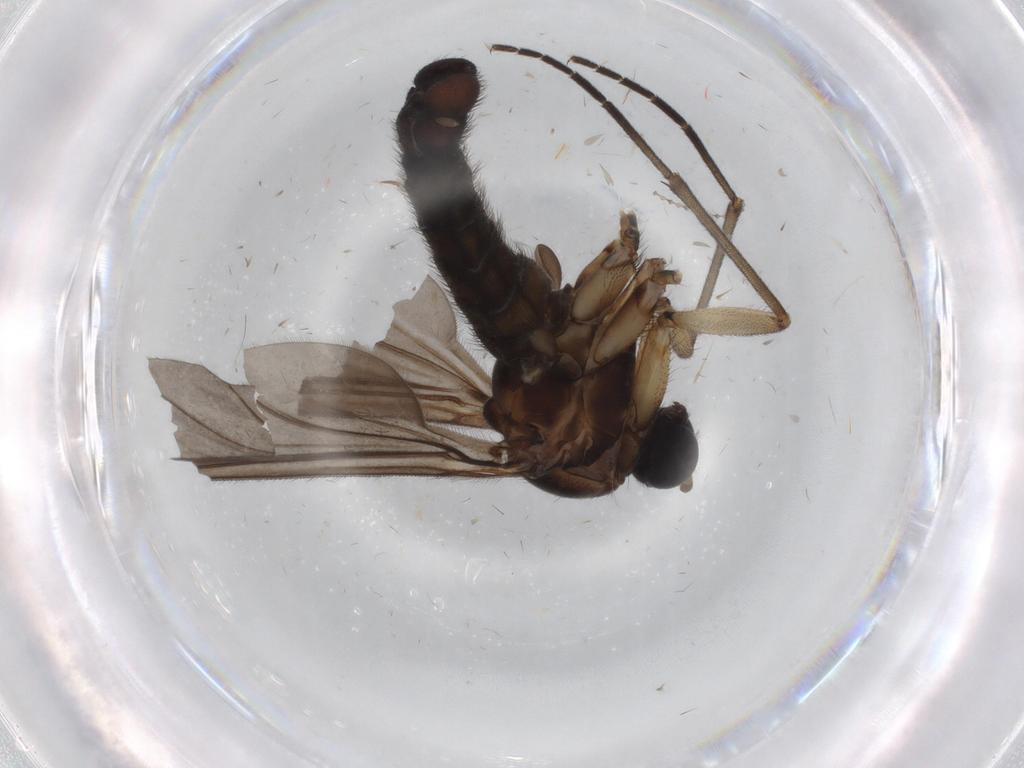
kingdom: Animalia
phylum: Arthropoda
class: Insecta
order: Diptera
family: Cecidomyiidae
